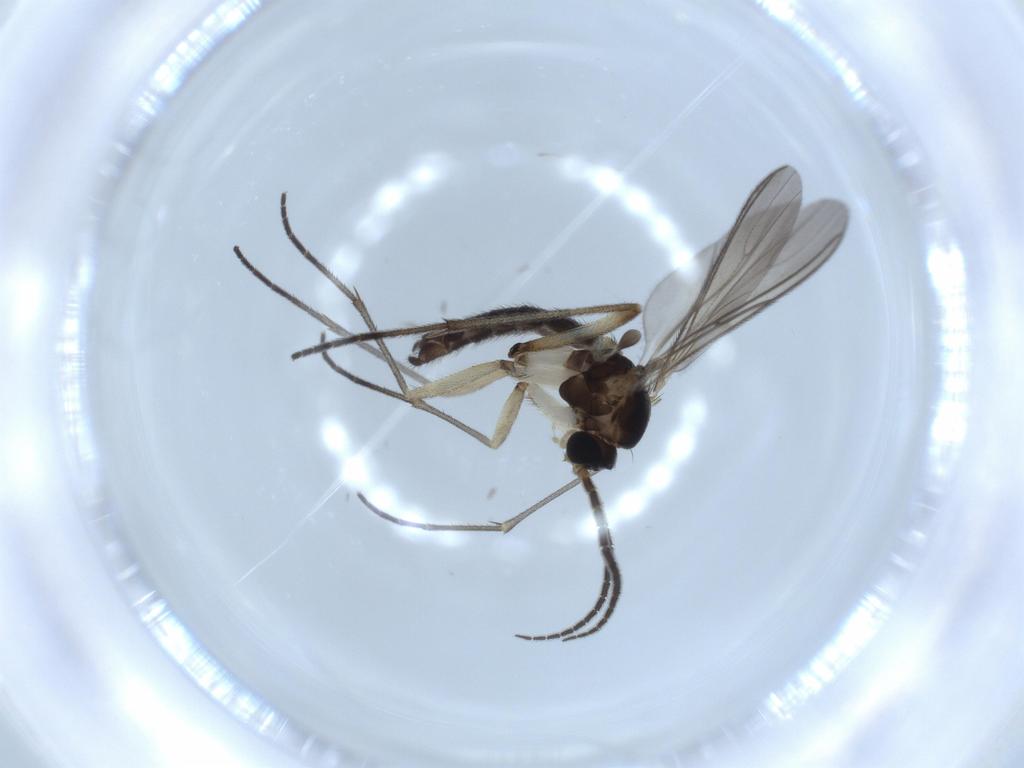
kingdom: Animalia
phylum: Arthropoda
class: Insecta
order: Diptera
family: Sciaridae
